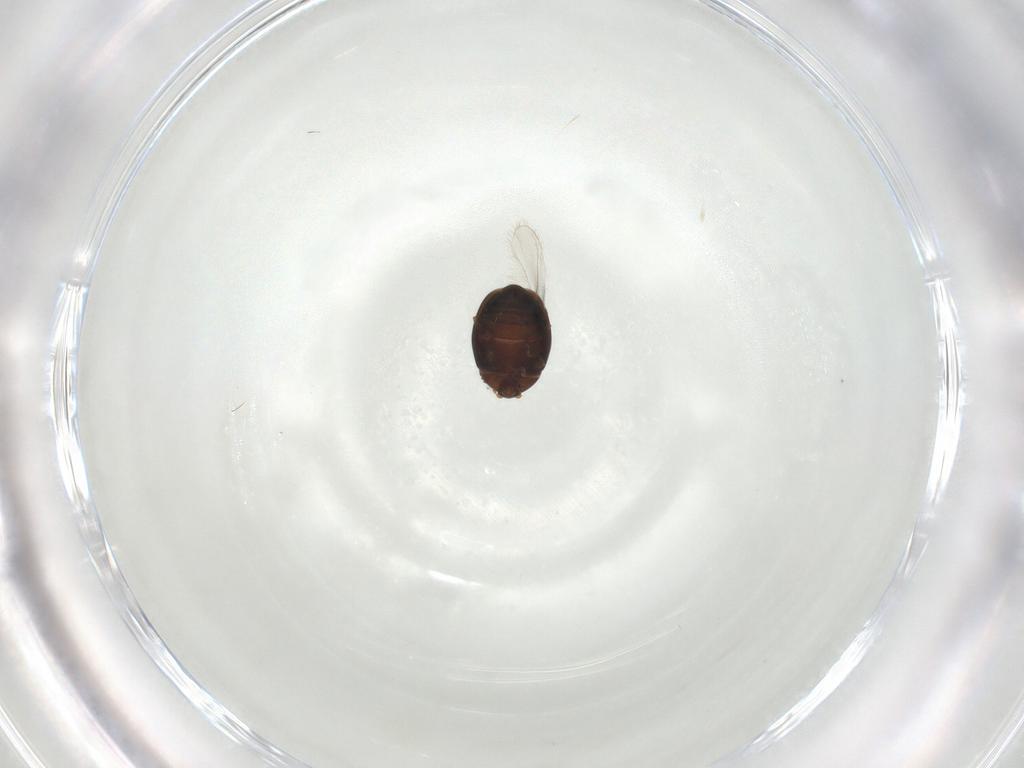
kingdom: Animalia
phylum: Arthropoda
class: Insecta
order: Coleoptera
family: Corylophidae
